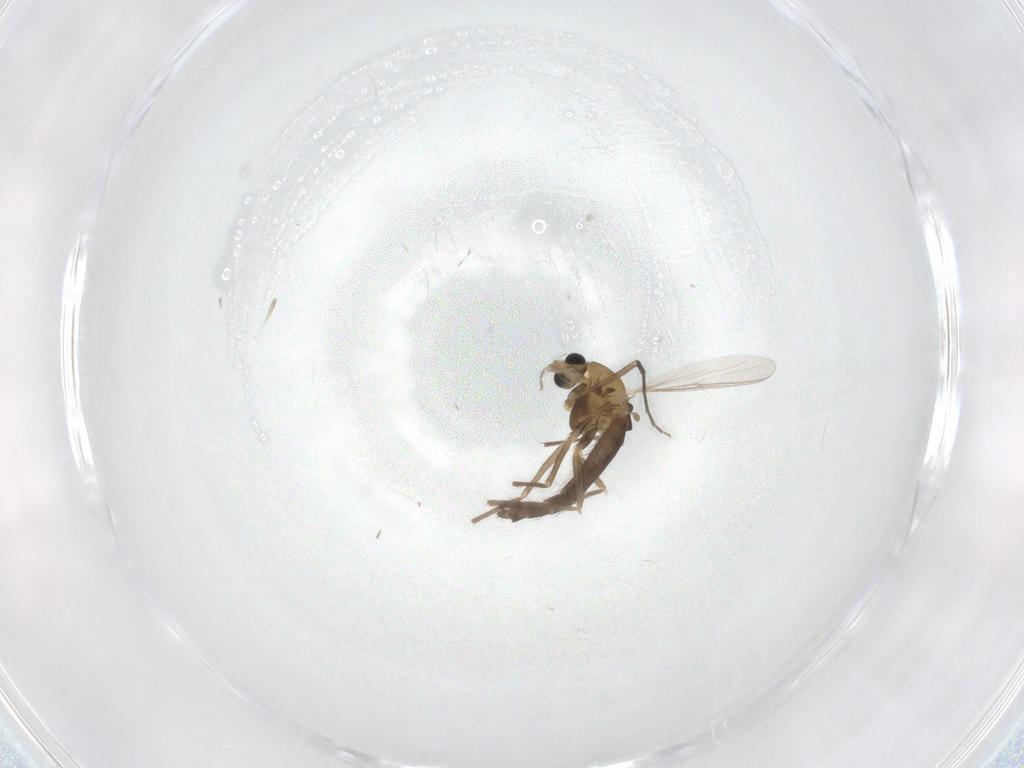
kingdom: Animalia
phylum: Arthropoda
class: Insecta
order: Diptera
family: Chironomidae
